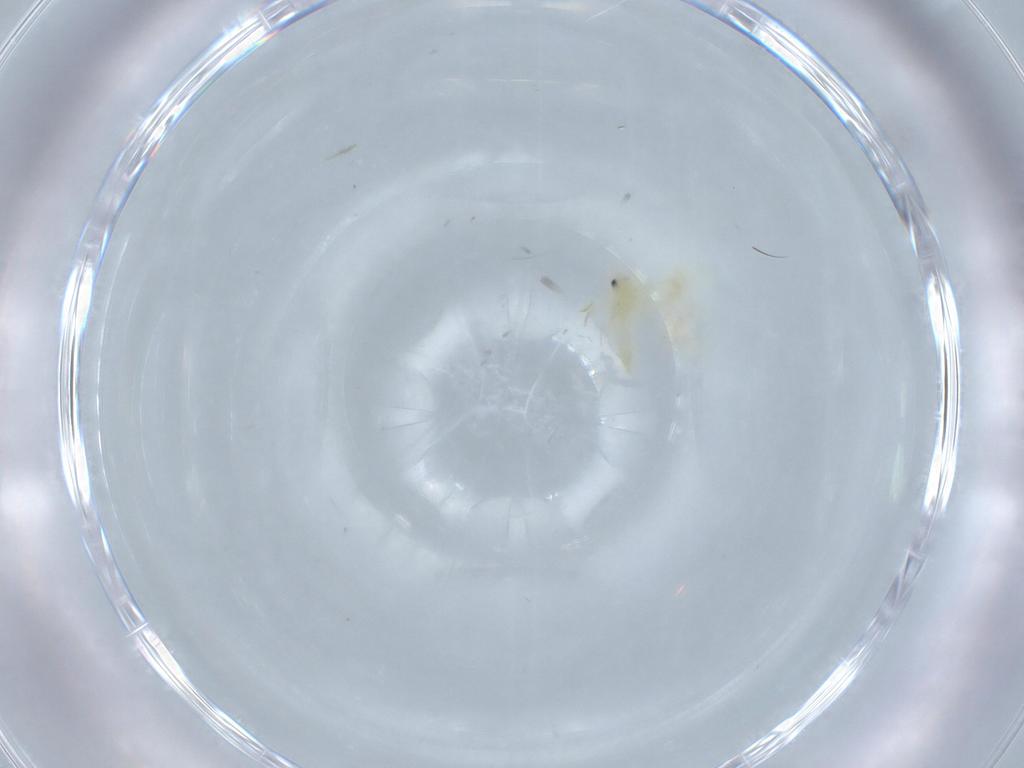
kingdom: Animalia
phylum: Arthropoda
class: Insecta
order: Hemiptera
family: Aleyrodidae
